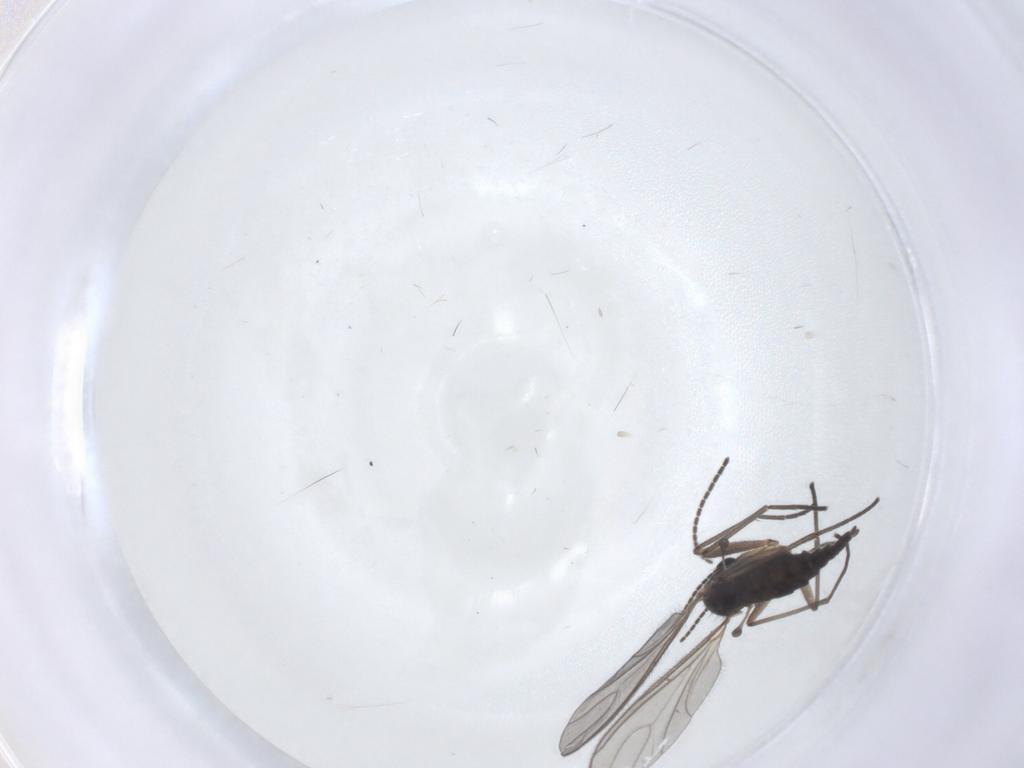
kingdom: Animalia
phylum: Arthropoda
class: Insecta
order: Diptera
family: Sciaridae
